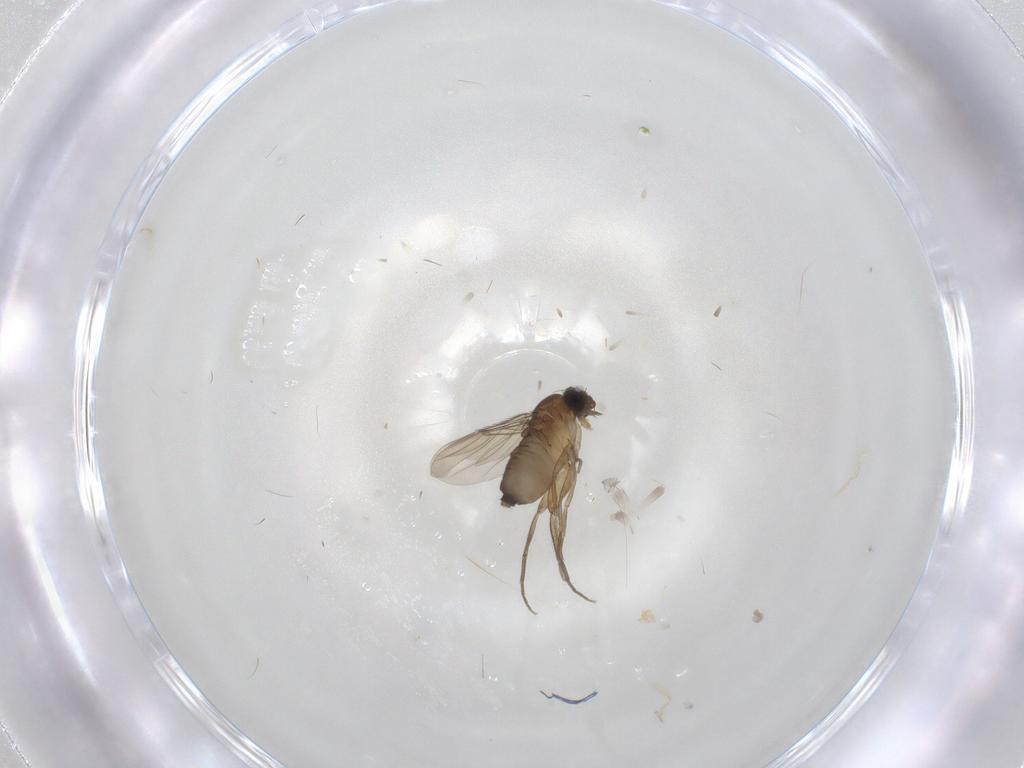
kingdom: Animalia
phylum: Arthropoda
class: Insecta
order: Diptera
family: Phoridae
